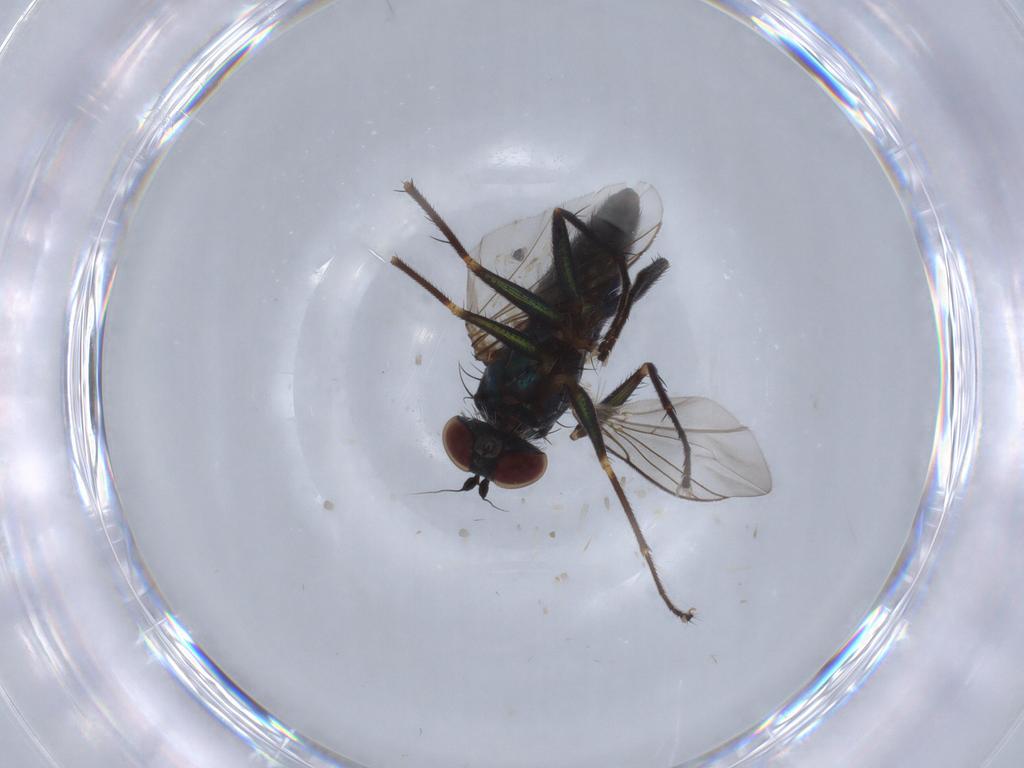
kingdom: Animalia
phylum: Arthropoda
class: Insecta
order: Diptera
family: Dolichopodidae
